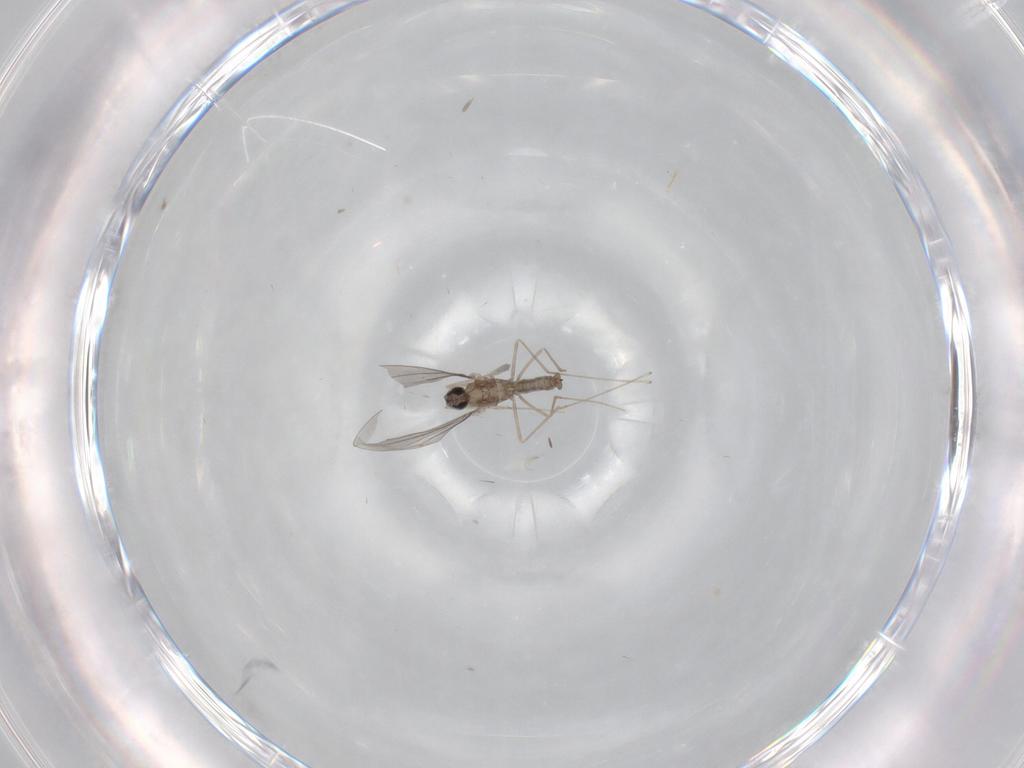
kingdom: Animalia
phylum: Arthropoda
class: Insecta
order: Diptera
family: Cecidomyiidae
